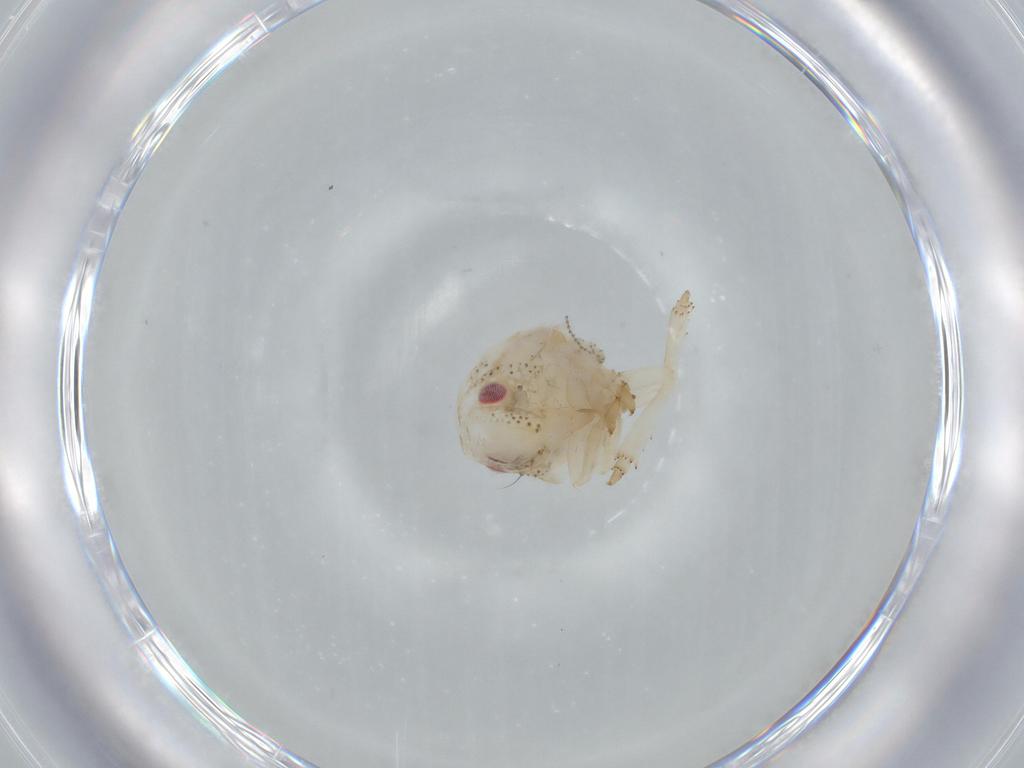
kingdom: Animalia
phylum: Arthropoda
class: Insecta
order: Hemiptera
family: Acanaloniidae
